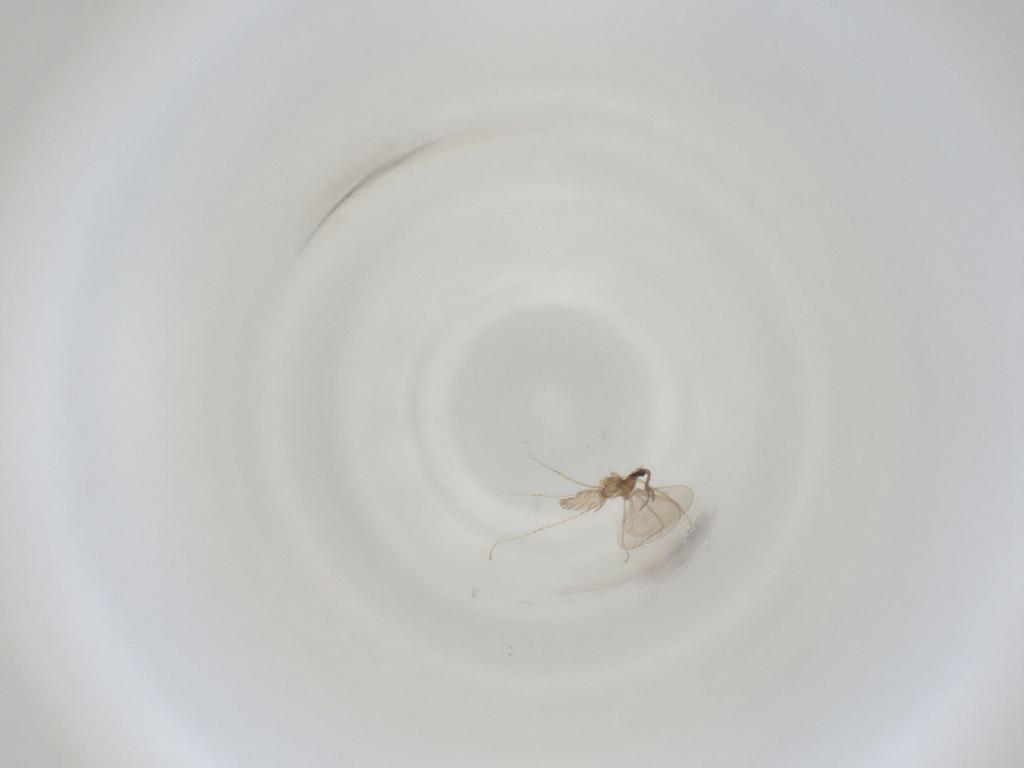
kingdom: Animalia
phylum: Arthropoda
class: Insecta
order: Diptera
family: Cecidomyiidae
